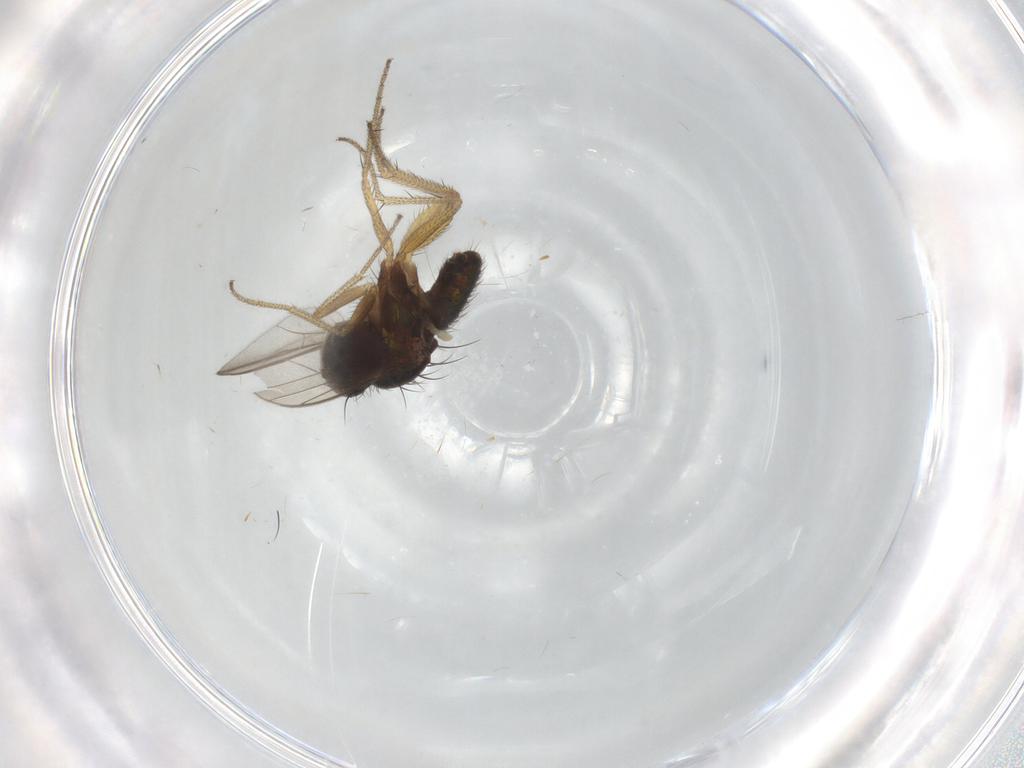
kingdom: Animalia
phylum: Arthropoda
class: Insecta
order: Diptera
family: Dolichopodidae
